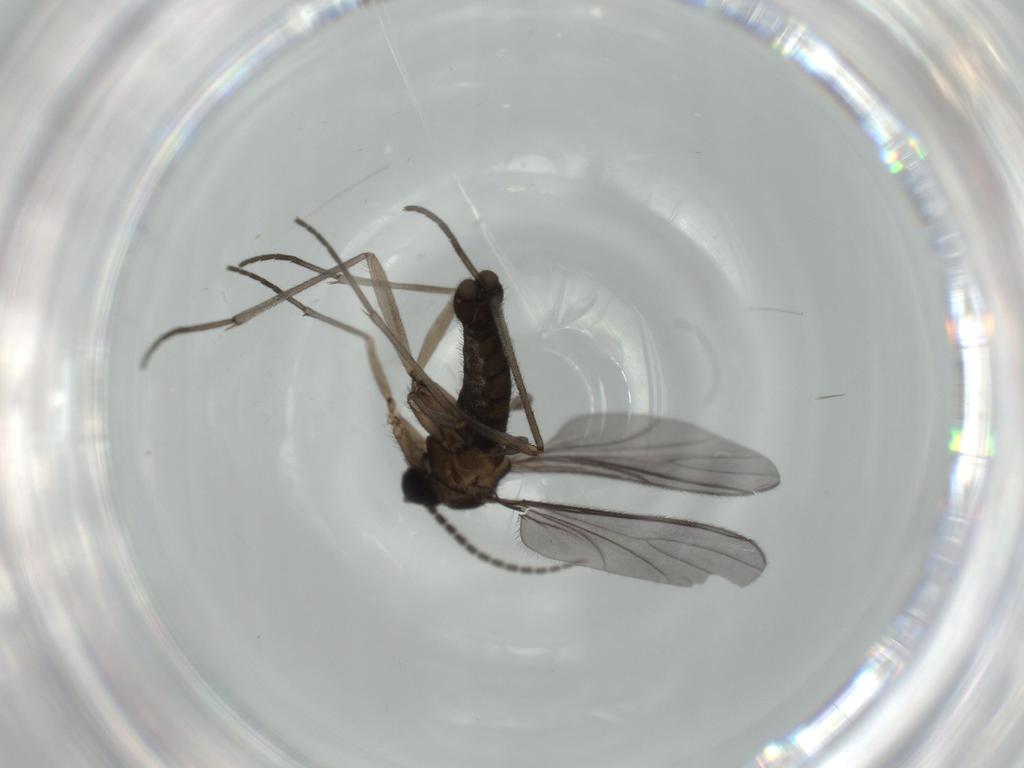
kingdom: Animalia
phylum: Arthropoda
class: Insecta
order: Diptera
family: Sciaridae
